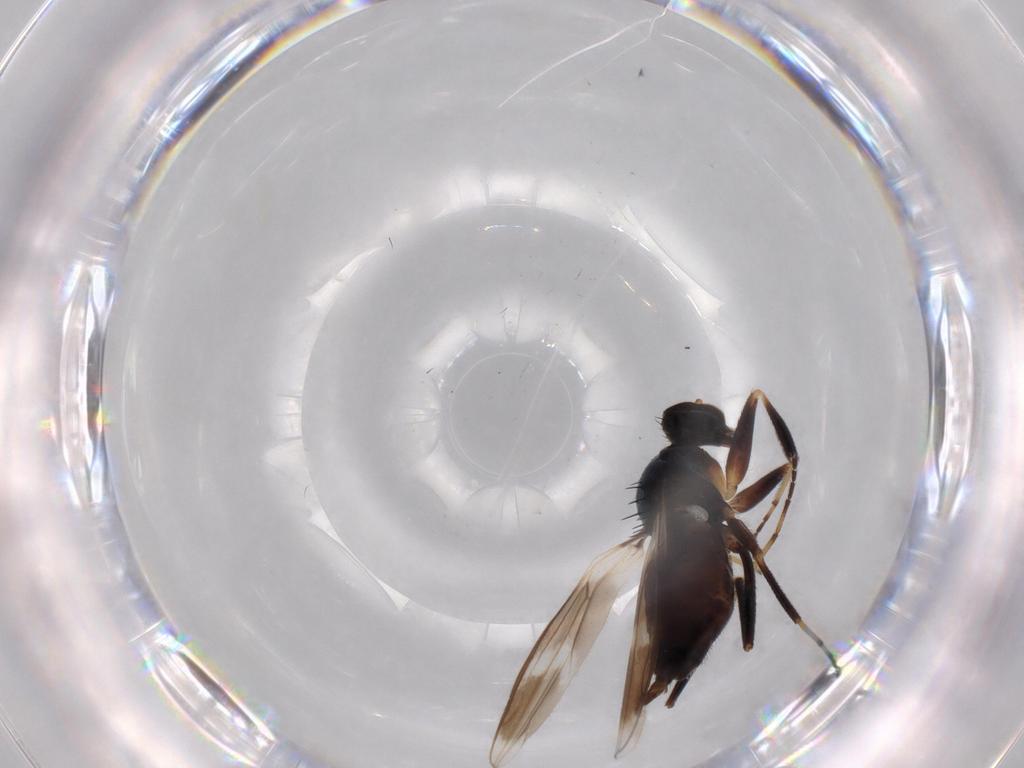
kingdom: Animalia
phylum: Arthropoda
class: Insecta
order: Diptera
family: Hybotidae
